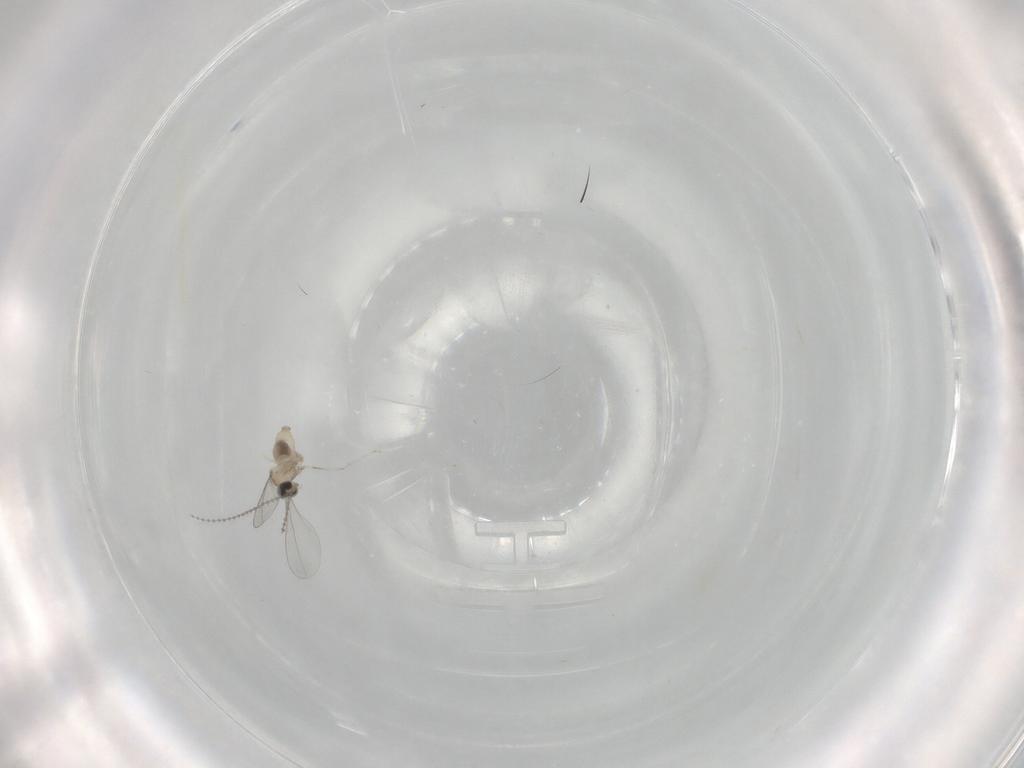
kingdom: Animalia
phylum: Arthropoda
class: Insecta
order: Diptera
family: Cecidomyiidae
